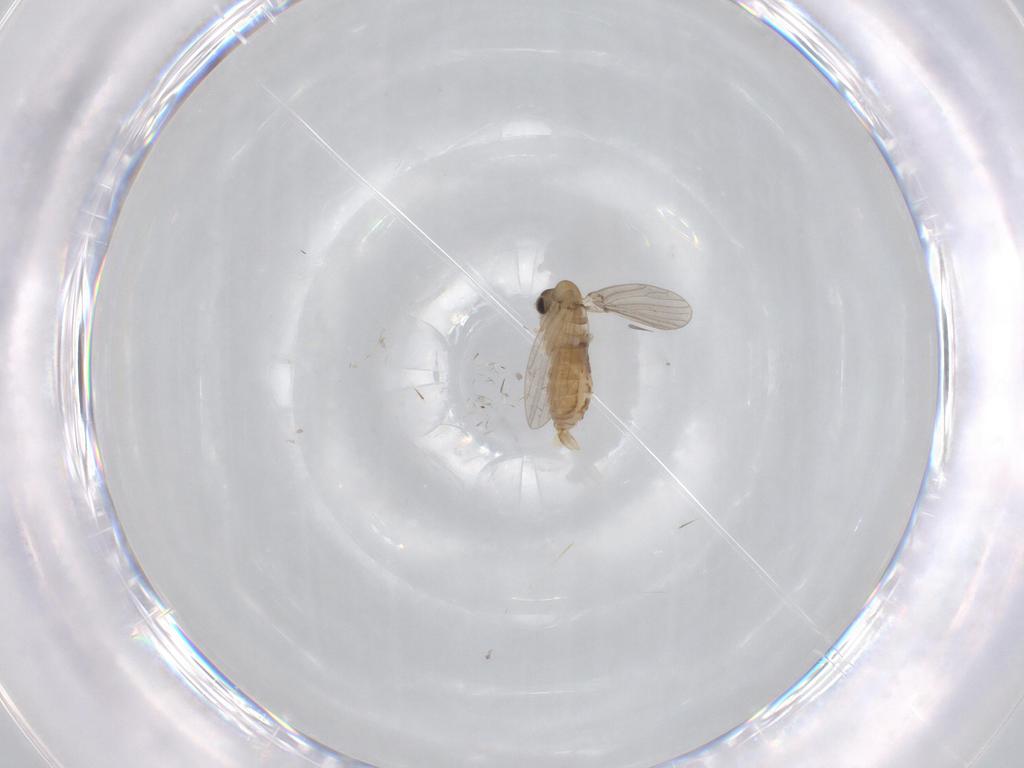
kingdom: Animalia
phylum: Arthropoda
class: Insecta
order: Diptera
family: Psychodidae
